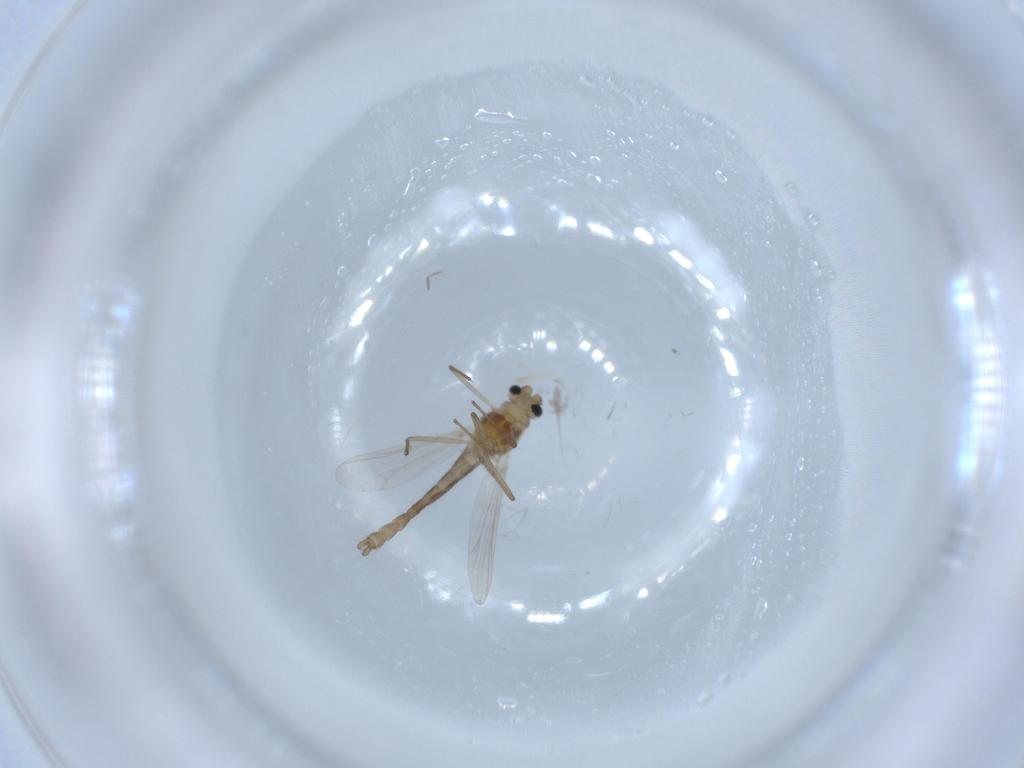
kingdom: Animalia
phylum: Arthropoda
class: Insecta
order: Diptera
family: Chironomidae
